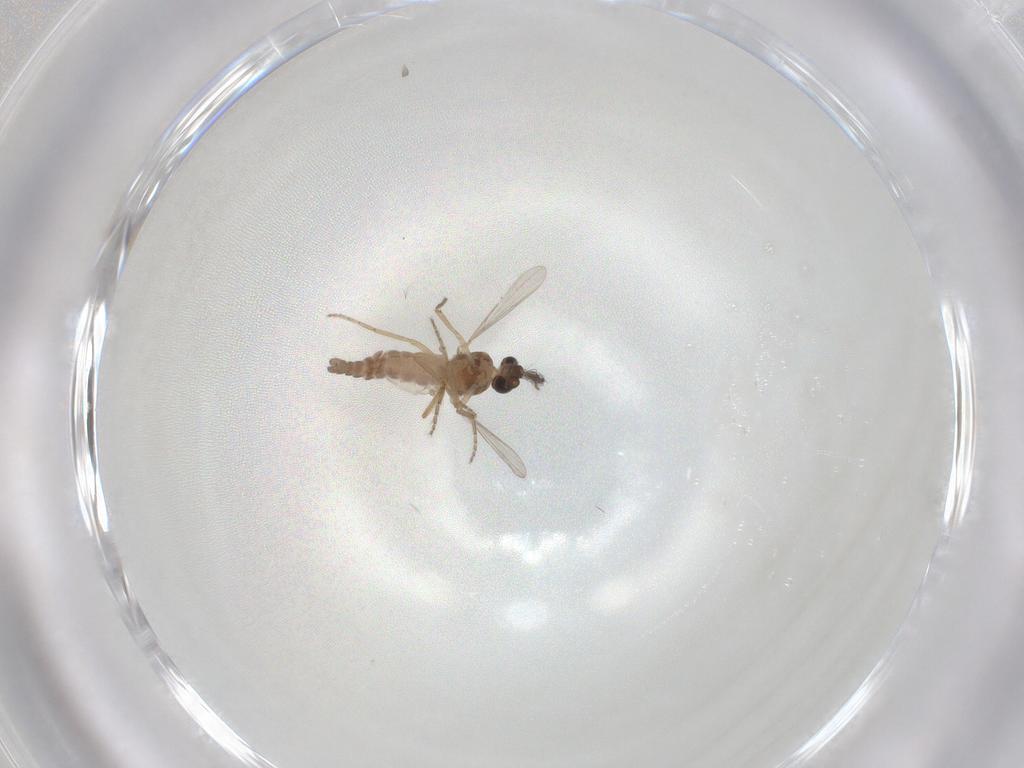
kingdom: Animalia
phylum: Arthropoda
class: Insecta
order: Diptera
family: Ceratopogonidae
